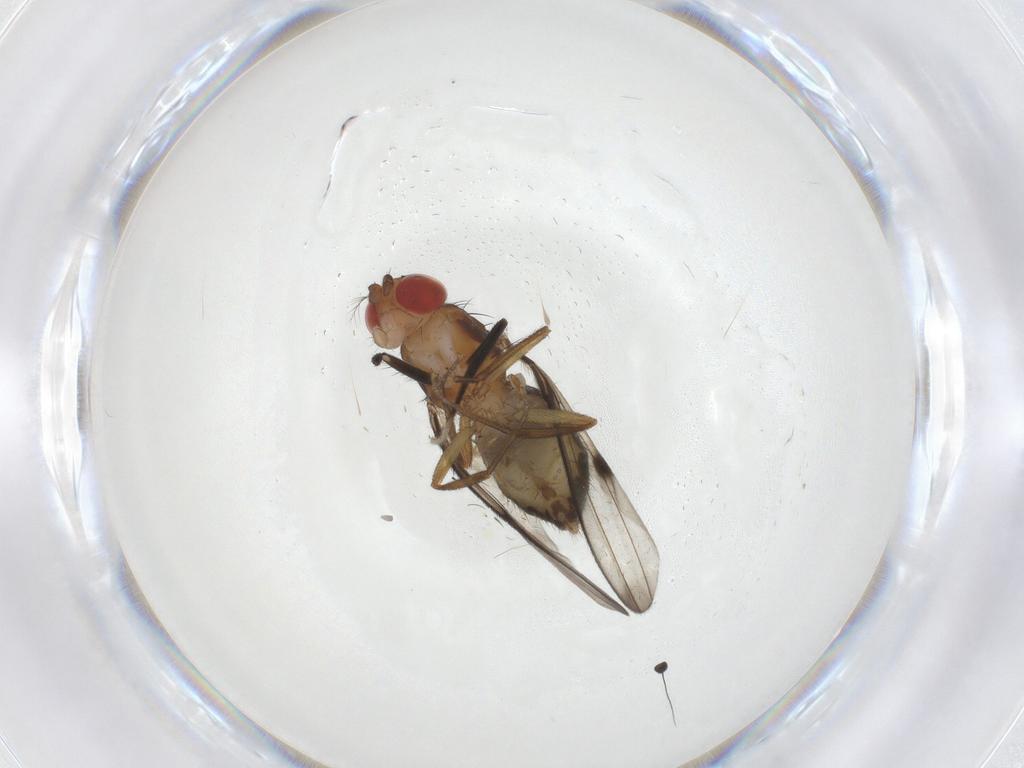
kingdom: Animalia
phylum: Arthropoda
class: Insecta
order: Diptera
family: Drosophilidae
